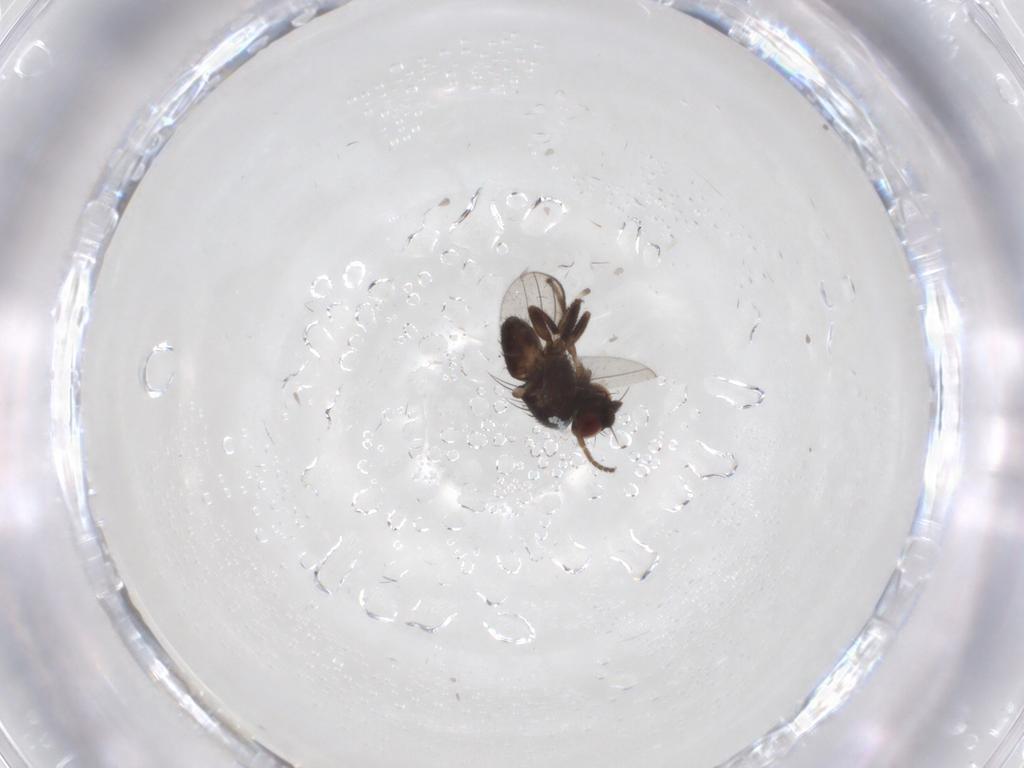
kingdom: Animalia
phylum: Arthropoda
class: Insecta
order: Diptera
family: Milichiidae
